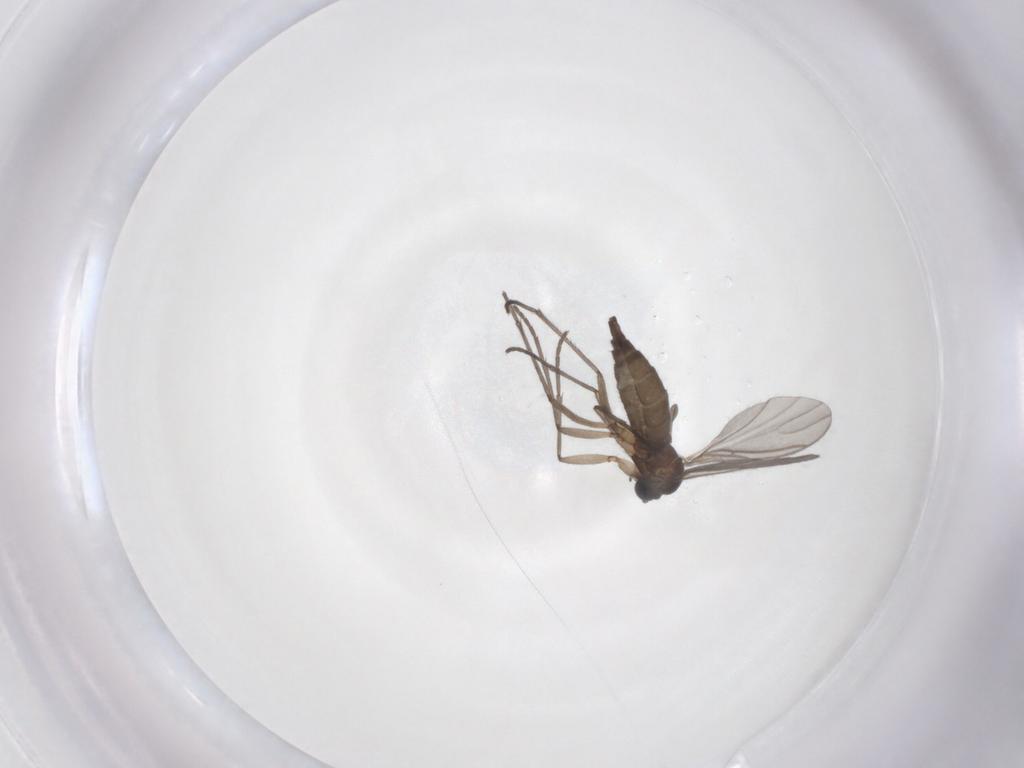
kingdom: Animalia
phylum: Arthropoda
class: Insecta
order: Diptera
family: Sciaridae
